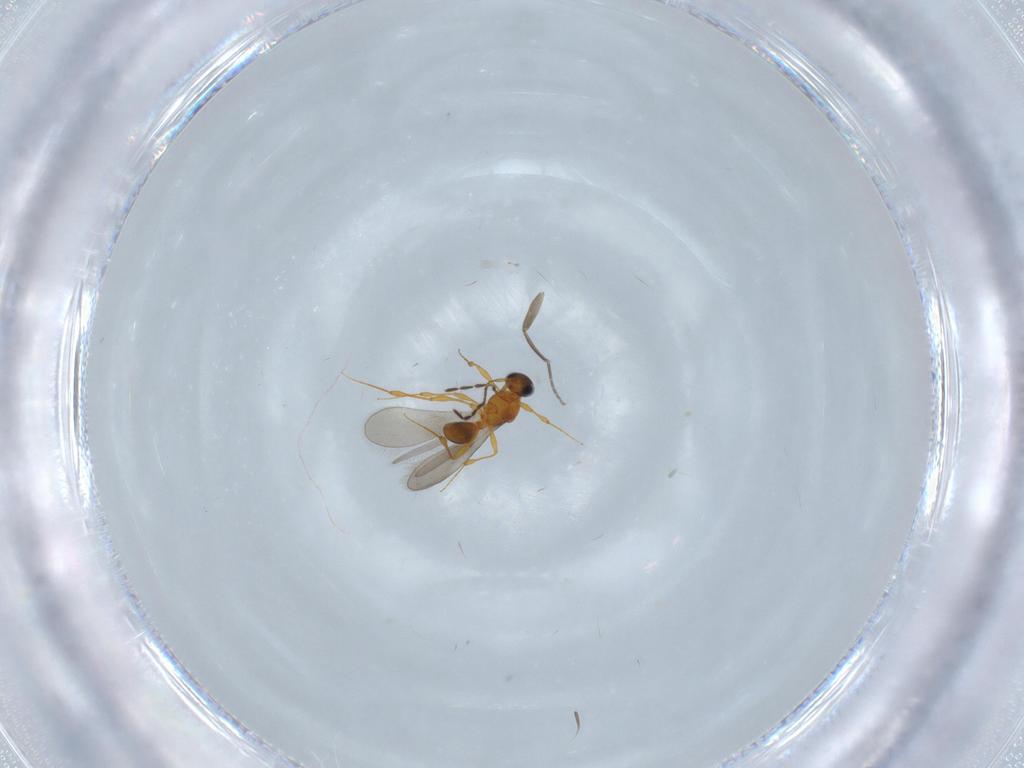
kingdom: Animalia
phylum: Arthropoda
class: Insecta
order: Hymenoptera
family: Platygastridae
